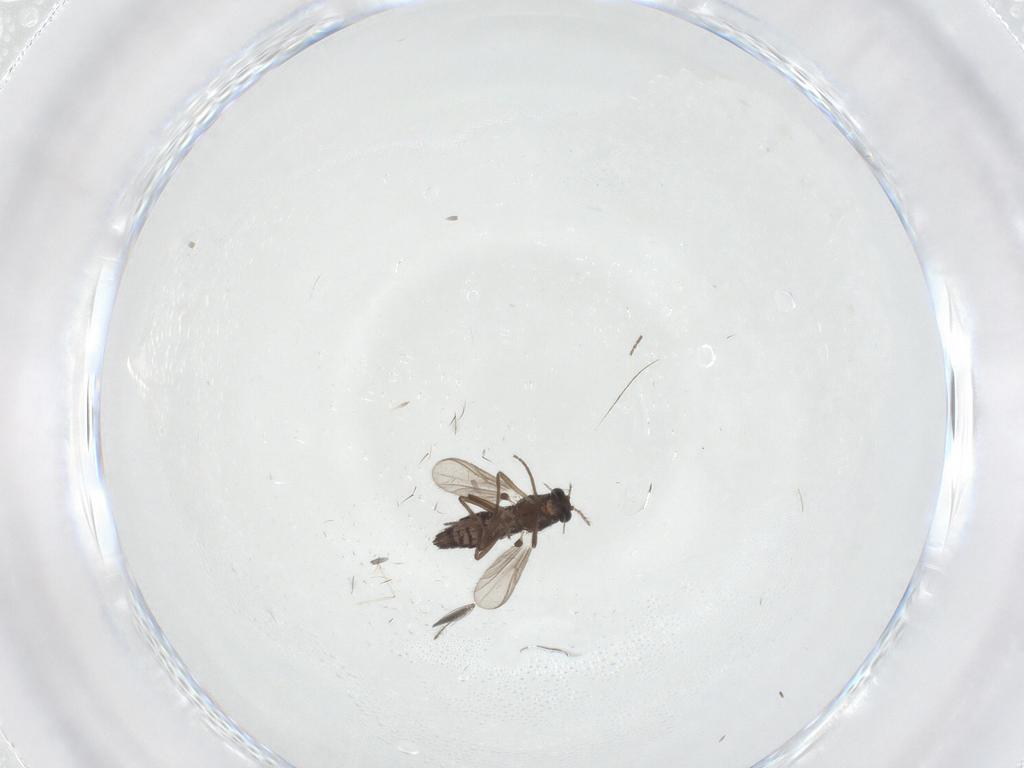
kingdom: Animalia
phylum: Arthropoda
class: Insecta
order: Diptera
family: Chironomidae
